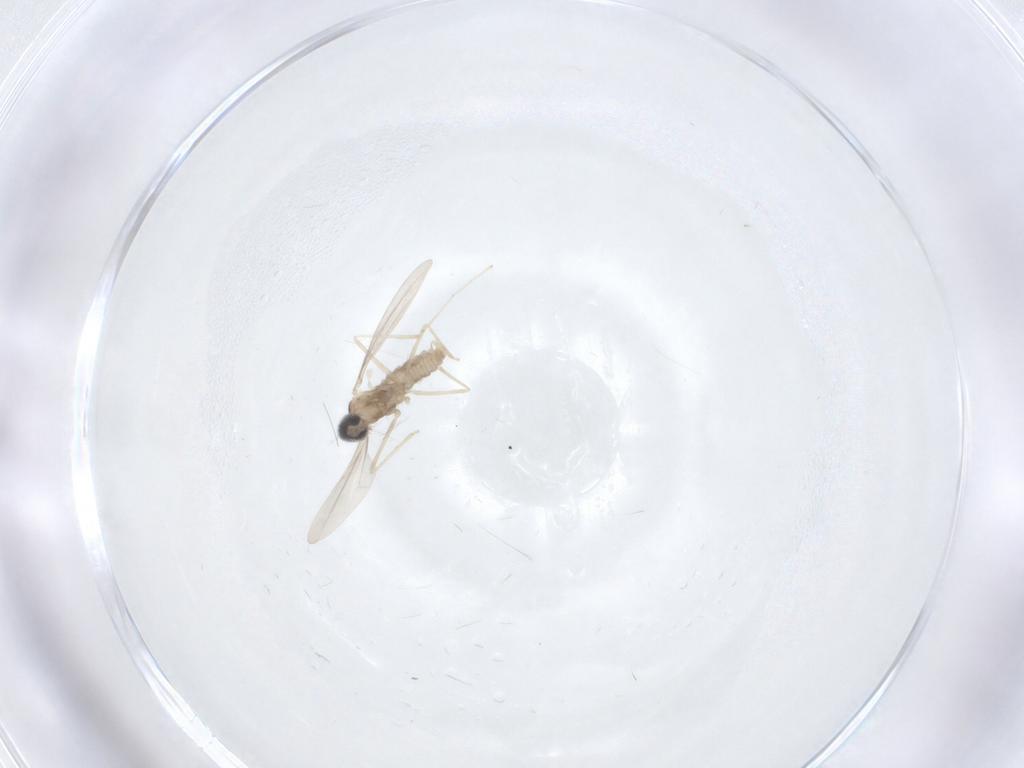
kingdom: Animalia
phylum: Arthropoda
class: Insecta
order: Diptera
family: Cecidomyiidae
